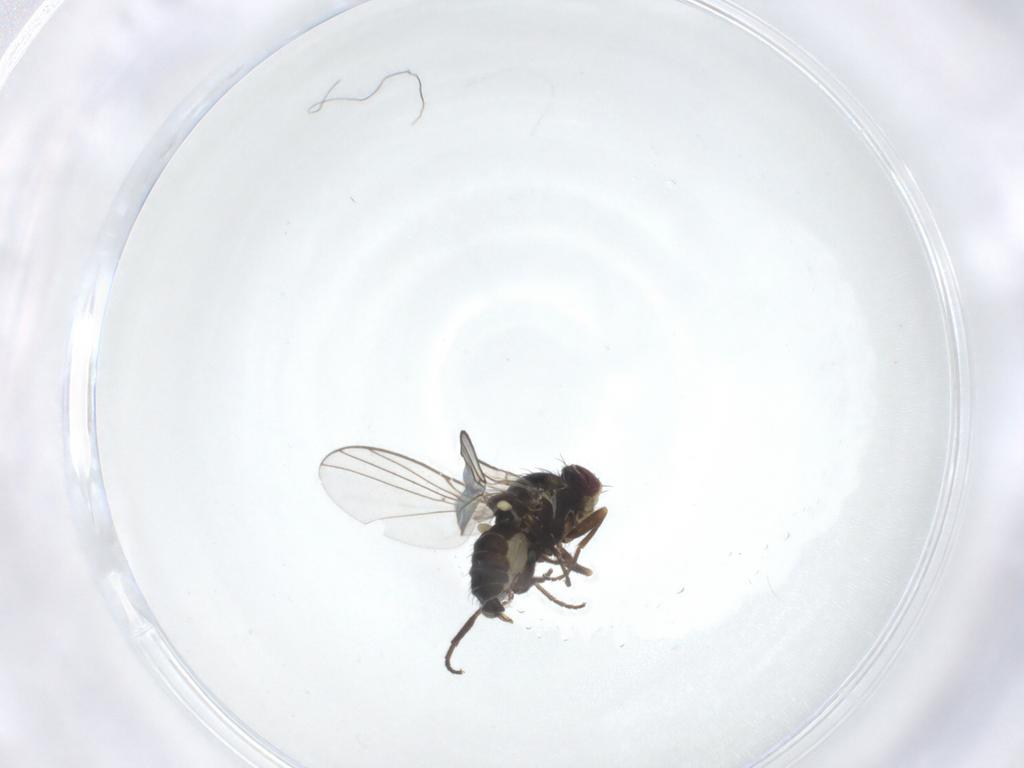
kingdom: Animalia
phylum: Arthropoda
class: Insecta
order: Diptera
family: Agromyzidae
